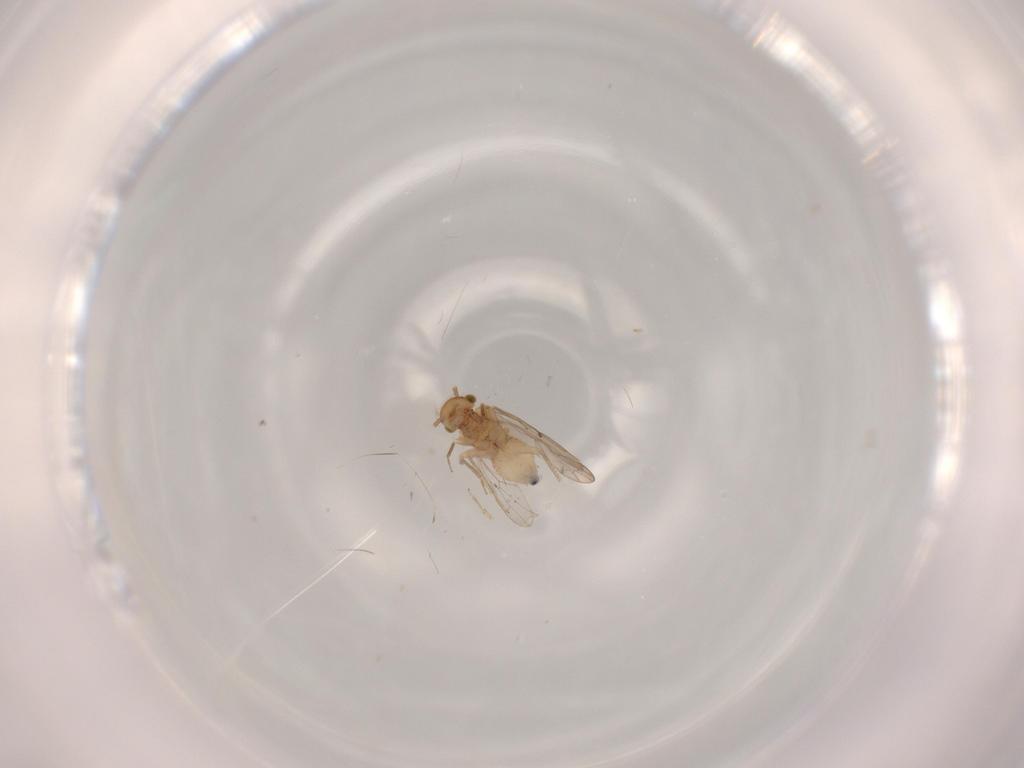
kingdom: Animalia
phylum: Arthropoda
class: Insecta
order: Psocodea
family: Ectopsocidae
